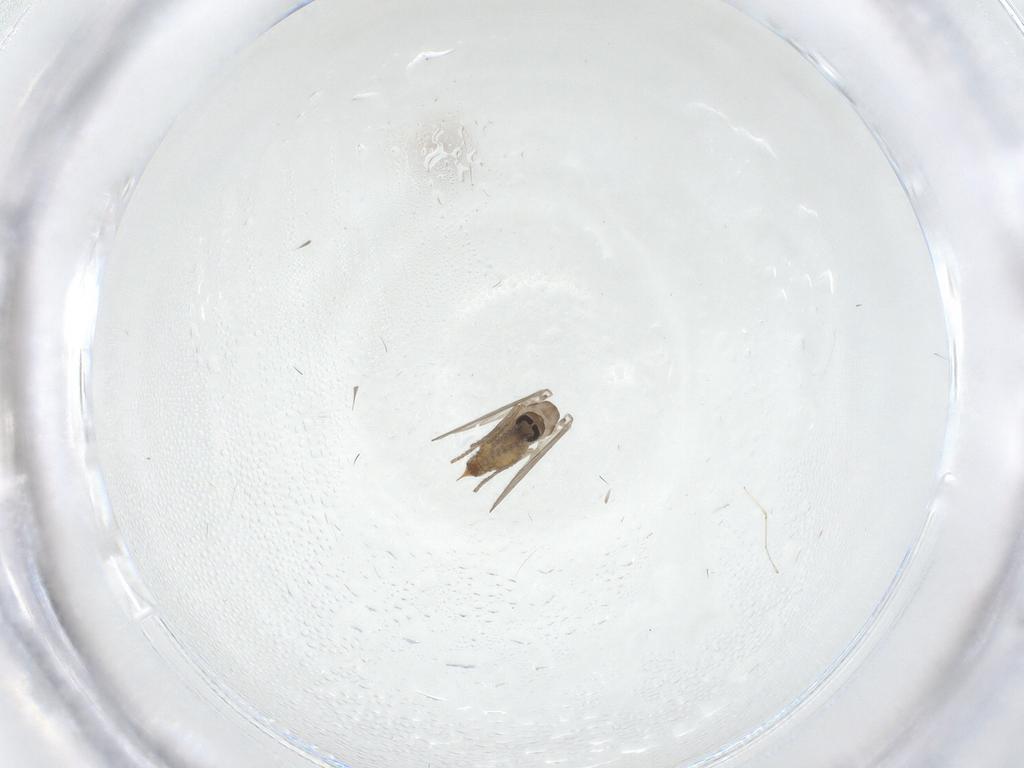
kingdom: Animalia
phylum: Arthropoda
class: Insecta
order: Diptera
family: Psychodidae
